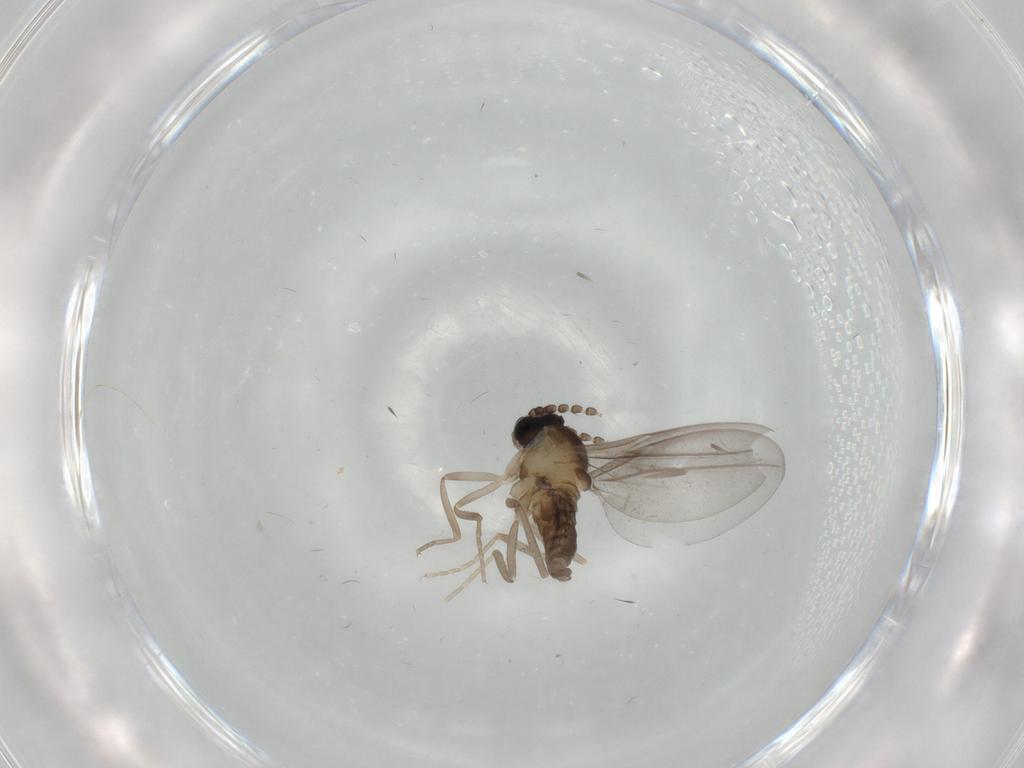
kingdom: Animalia
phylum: Arthropoda
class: Insecta
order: Diptera
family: Cecidomyiidae
